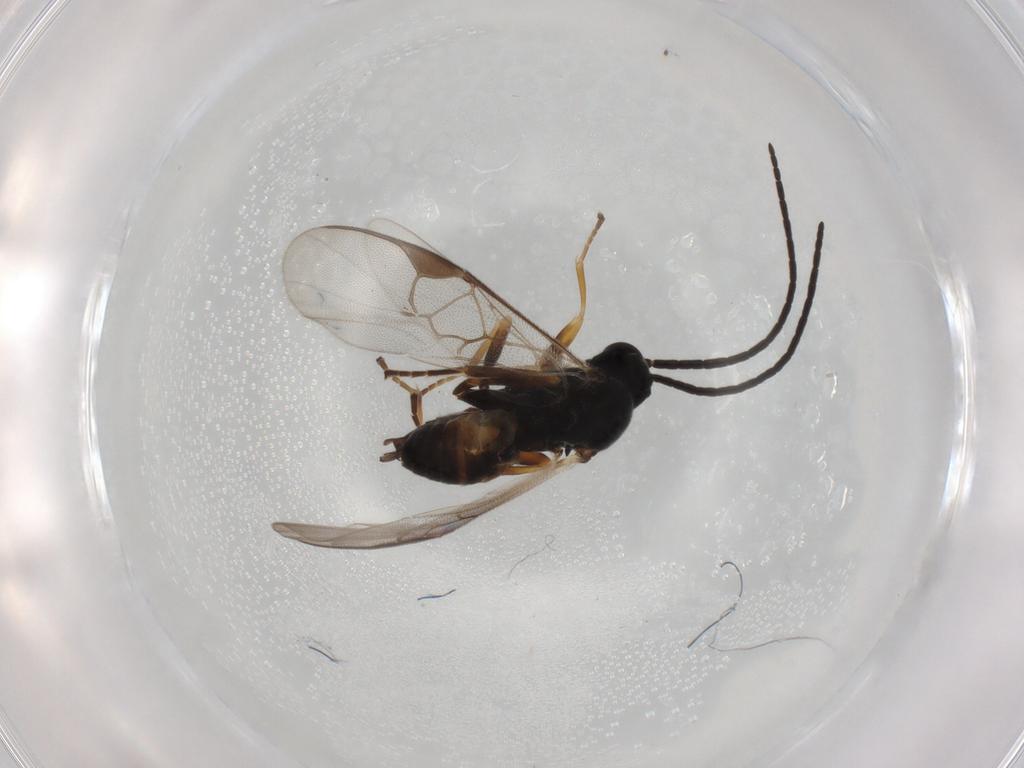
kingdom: Animalia
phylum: Arthropoda
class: Insecta
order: Hymenoptera
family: Braconidae
